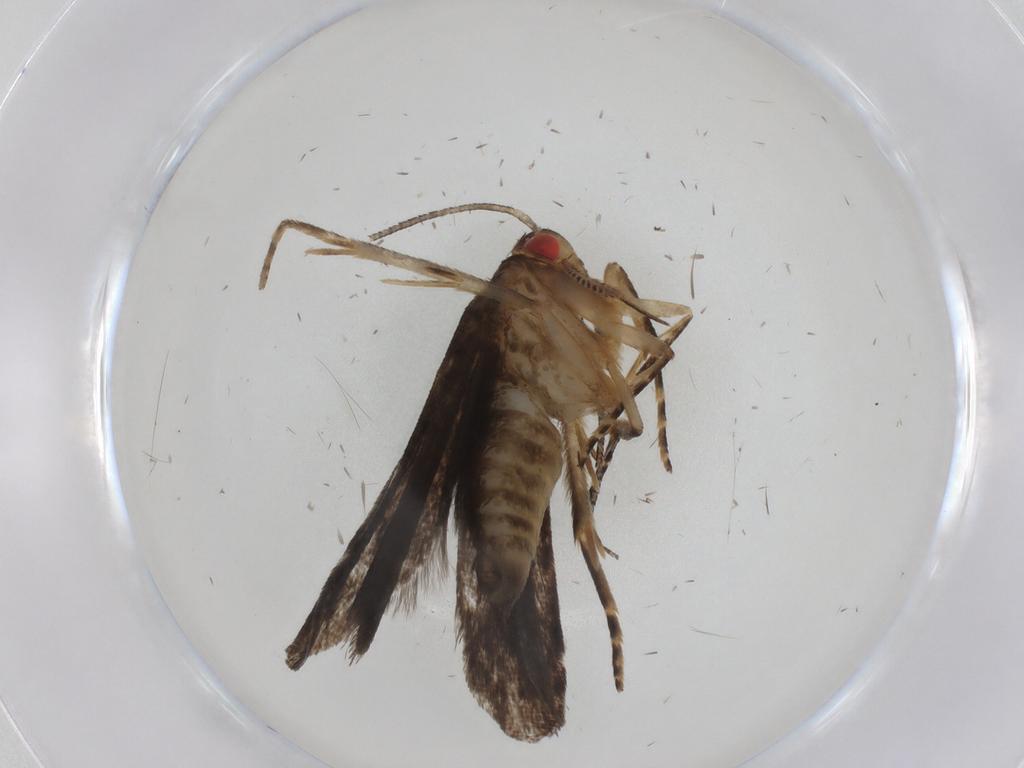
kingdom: Animalia
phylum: Arthropoda
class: Insecta
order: Lepidoptera
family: Gelechiidae
